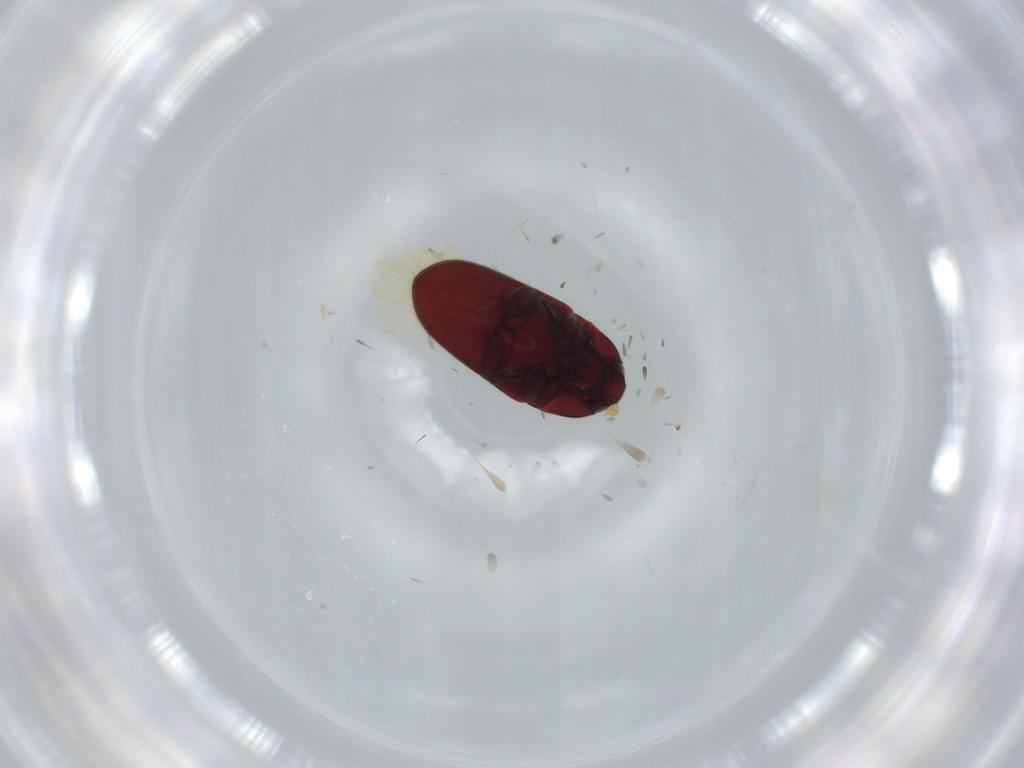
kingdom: Animalia
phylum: Arthropoda
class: Insecta
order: Coleoptera
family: Throscidae
